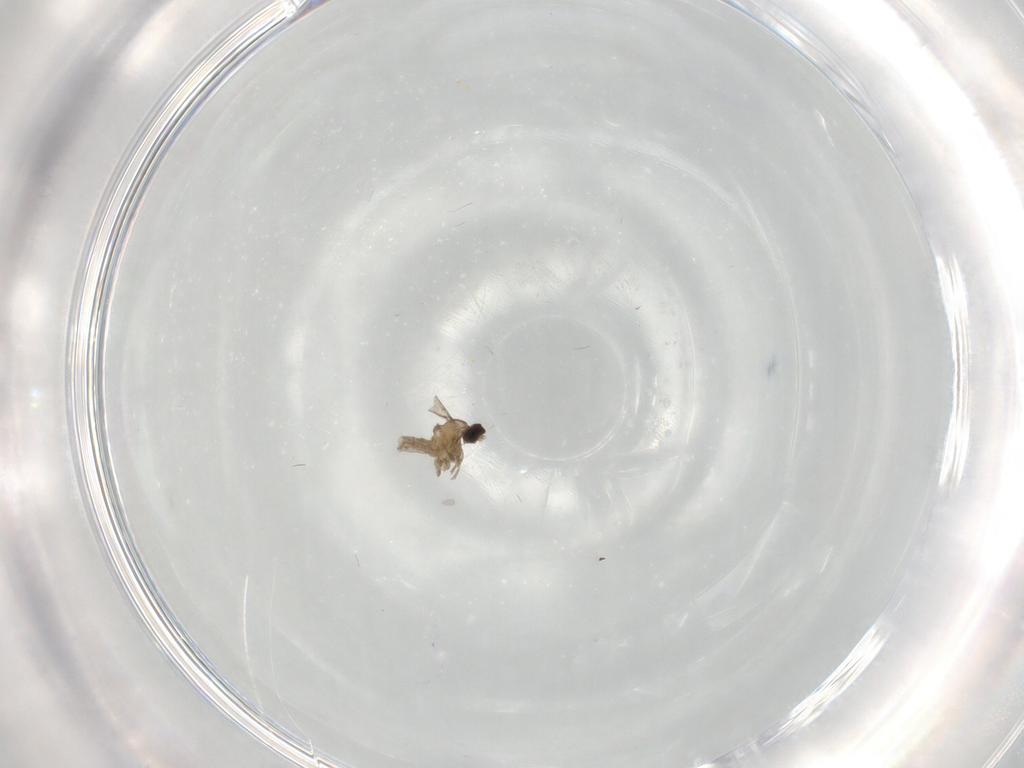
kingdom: Animalia
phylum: Arthropoda
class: Insecta
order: Diptera
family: Cecidomyiidae
